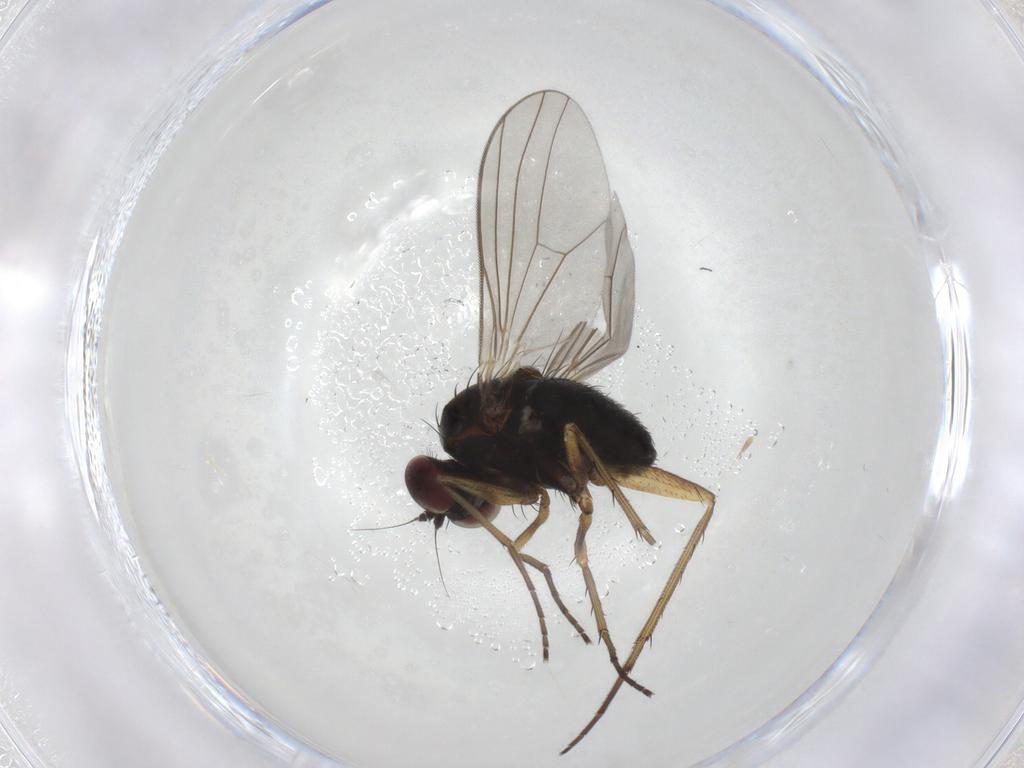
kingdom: Animalia
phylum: Arthropoda
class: Insecta
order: Diptera
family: Dolichopodidae
